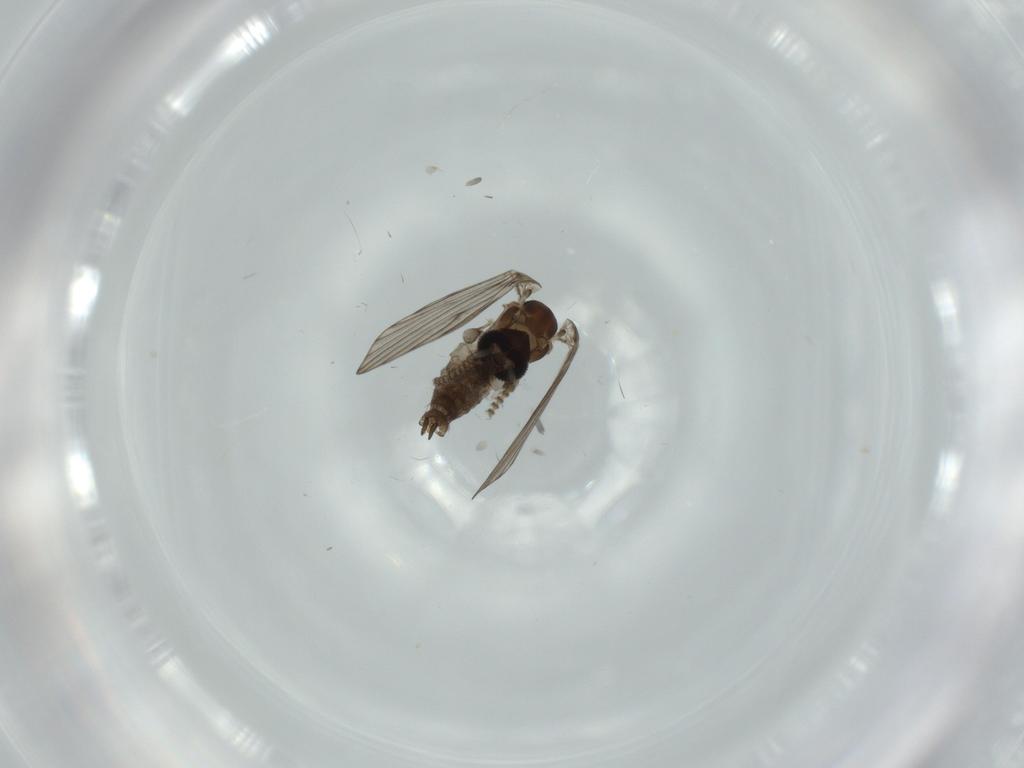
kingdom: Animalia
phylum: Arthropoda
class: Insecta
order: Diptera
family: Psychodidae
